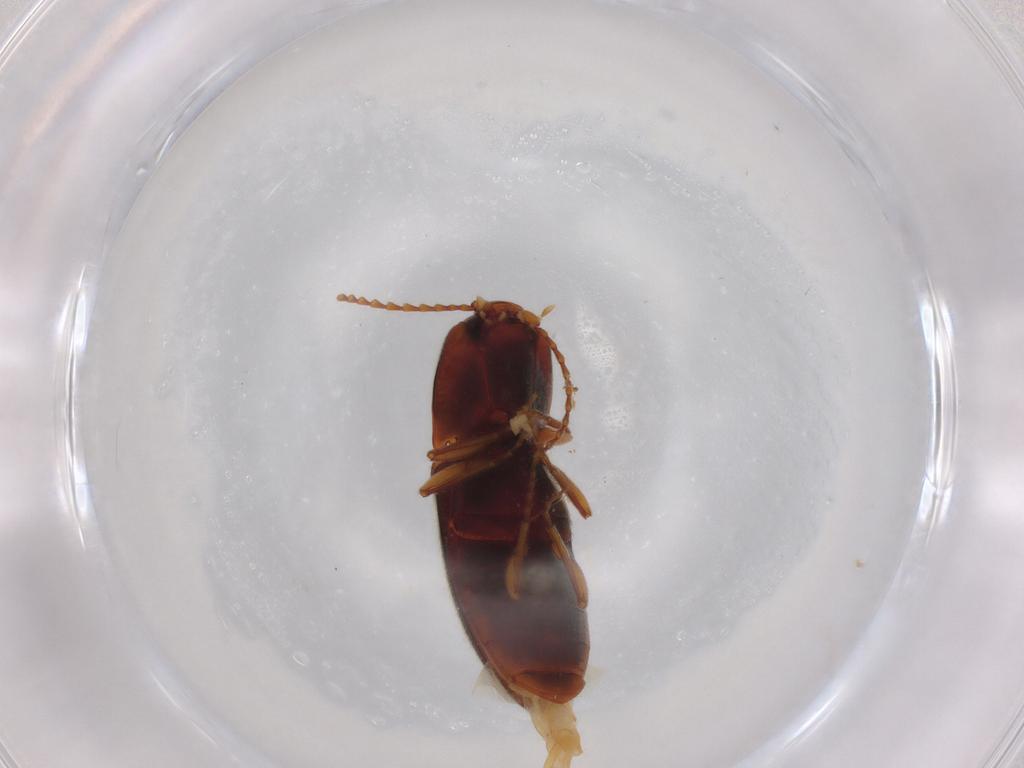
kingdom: Animalia
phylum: Arthropoda
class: Insecta
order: Coleoptera
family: Elateridae
